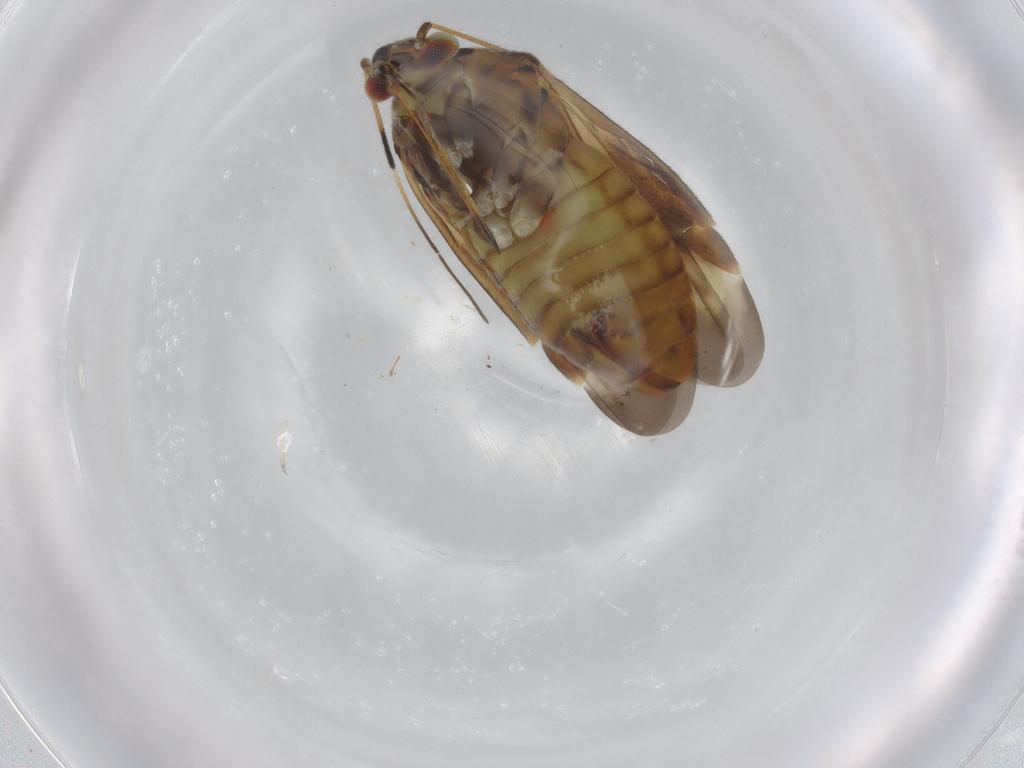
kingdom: Animalia
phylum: Arthropoda
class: Insecta
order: Hemiptera
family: Miridae
